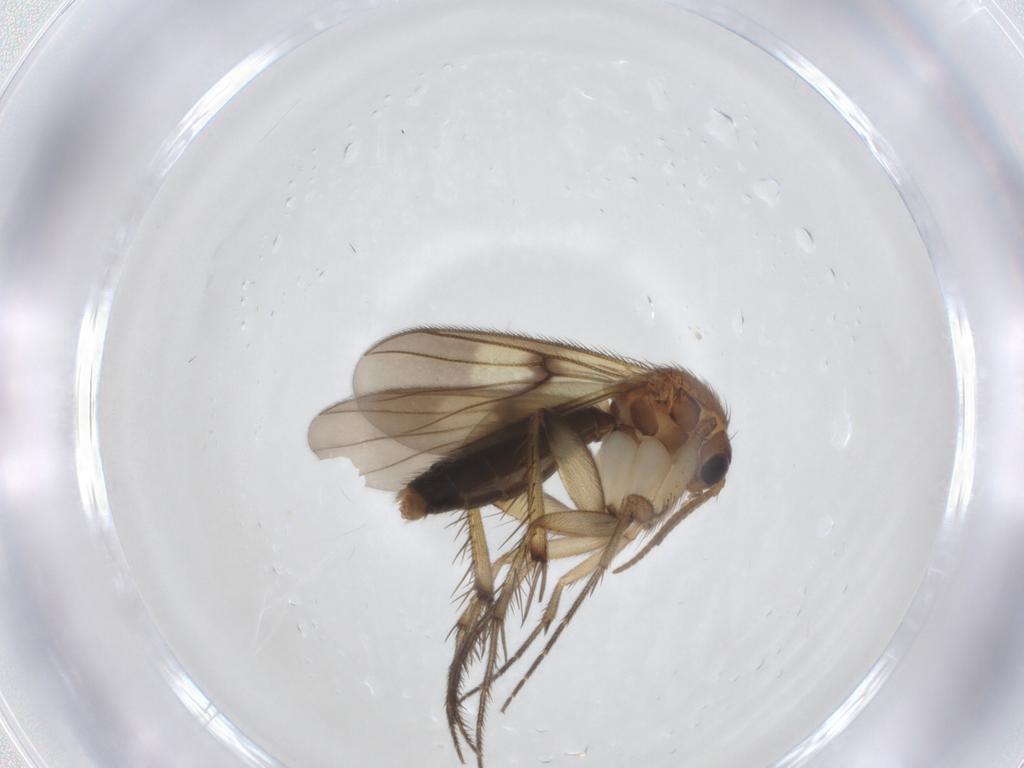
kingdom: Animalia
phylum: Arthropoda
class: Insecta
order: Diptera
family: Mycetophilidae
